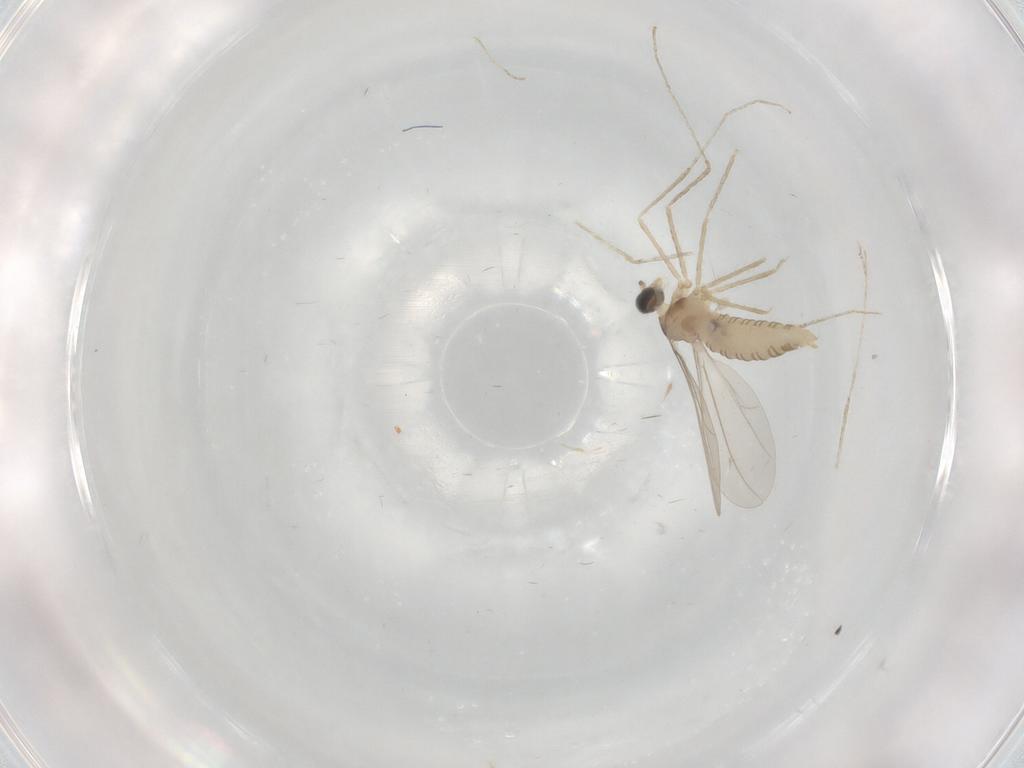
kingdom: Animalia
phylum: Arthropoda
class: Insecta
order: Diptera
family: Cecidomyiidae
